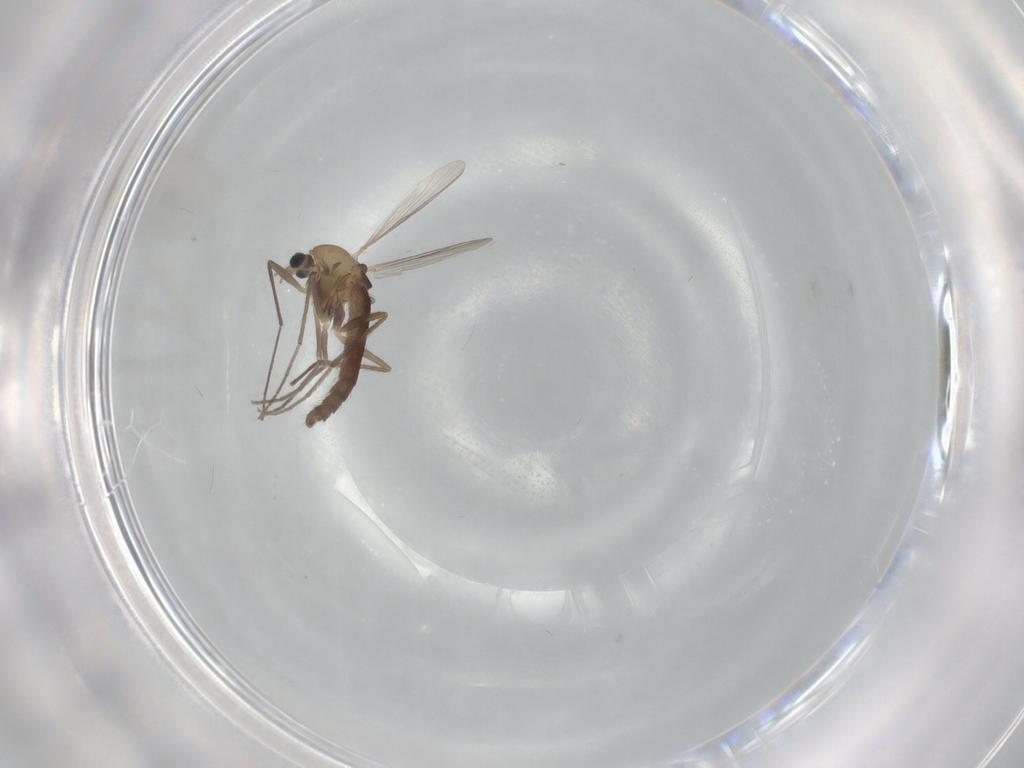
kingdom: Animalia
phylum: Arthropoda
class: Insecta
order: Diptera
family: Chironomidae
